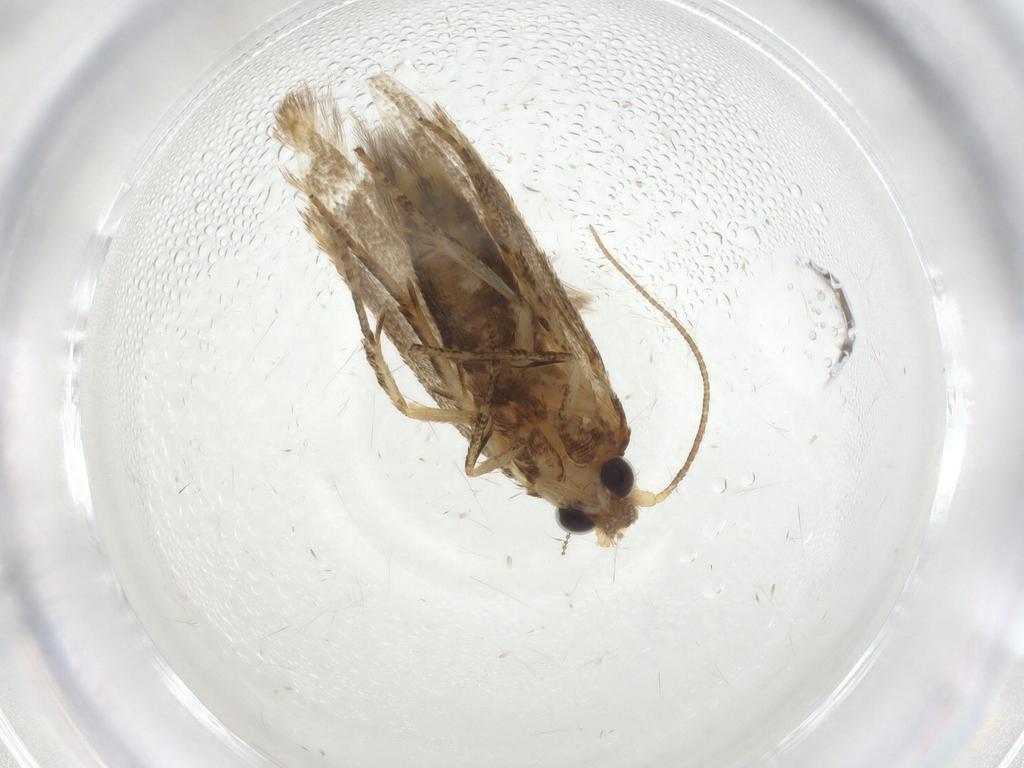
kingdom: Animalia
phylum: Arthropoda
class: Insecta
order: Lepidoptera
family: Blastobasidae
